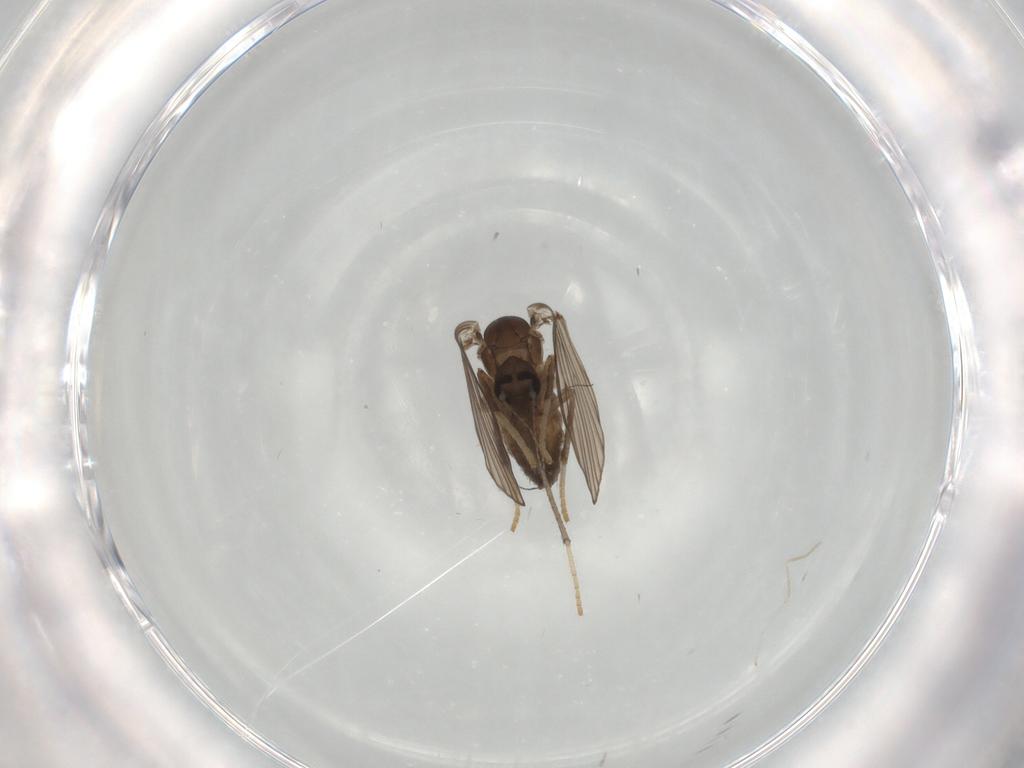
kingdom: Animalia
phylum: Arthropoda
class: Insecta
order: Diptera
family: Psychodidae
